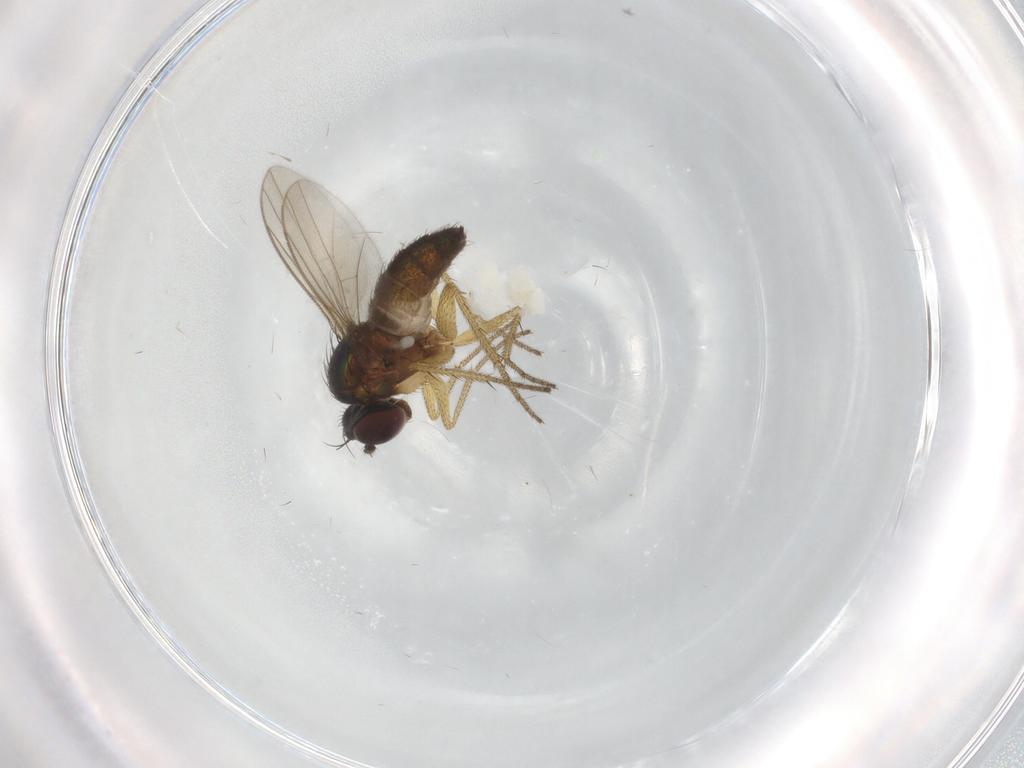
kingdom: Animalia
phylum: Arthropoda
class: Insecta
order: Diptera
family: Dolichopodidae
